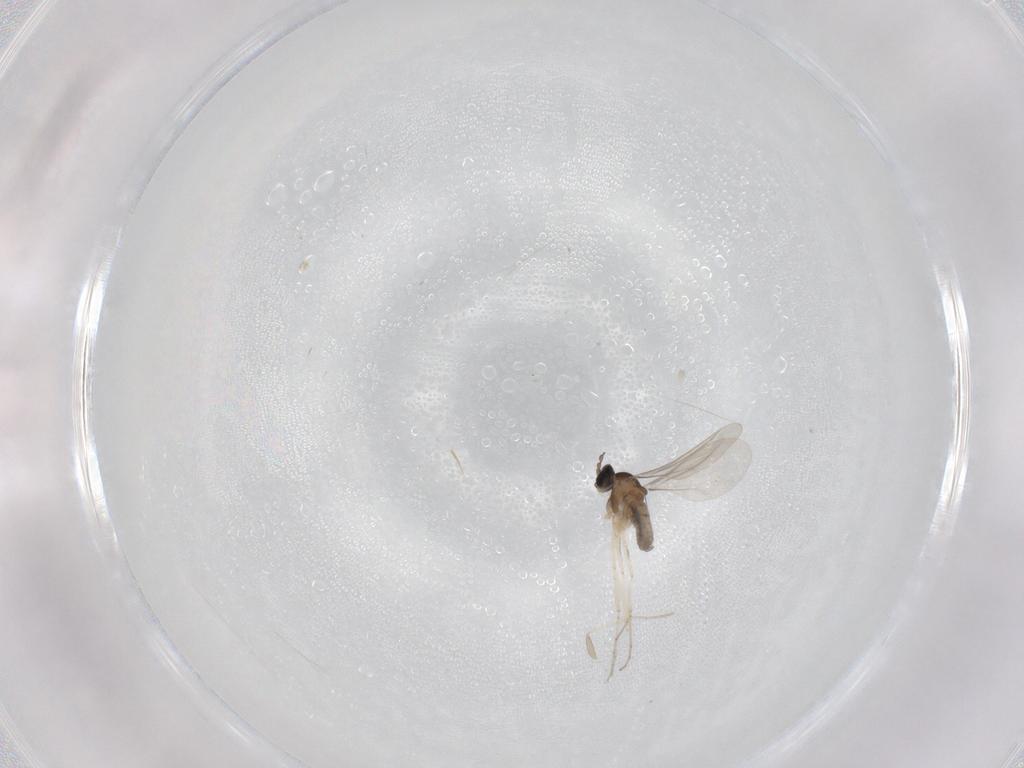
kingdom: Animalia
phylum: Arthropoda
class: Insecta
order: Diptera
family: Cecidomyiidae
